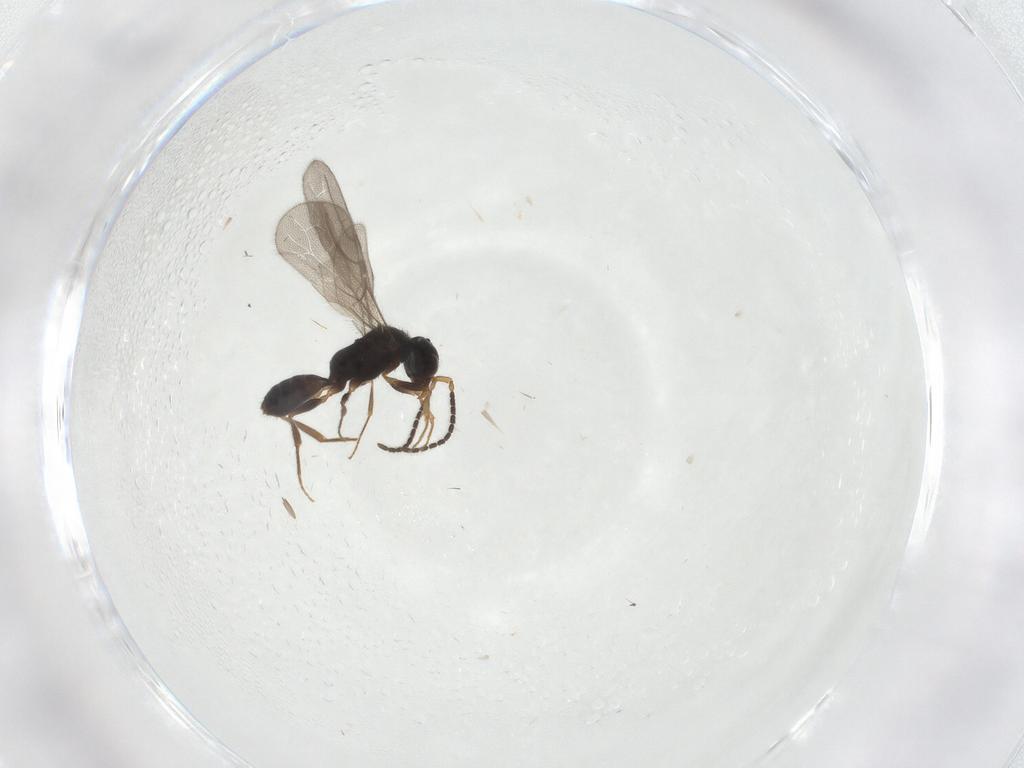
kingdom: Animalia
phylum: Arthropoda
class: Insecta
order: Hymenoptera
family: Bethylidae
